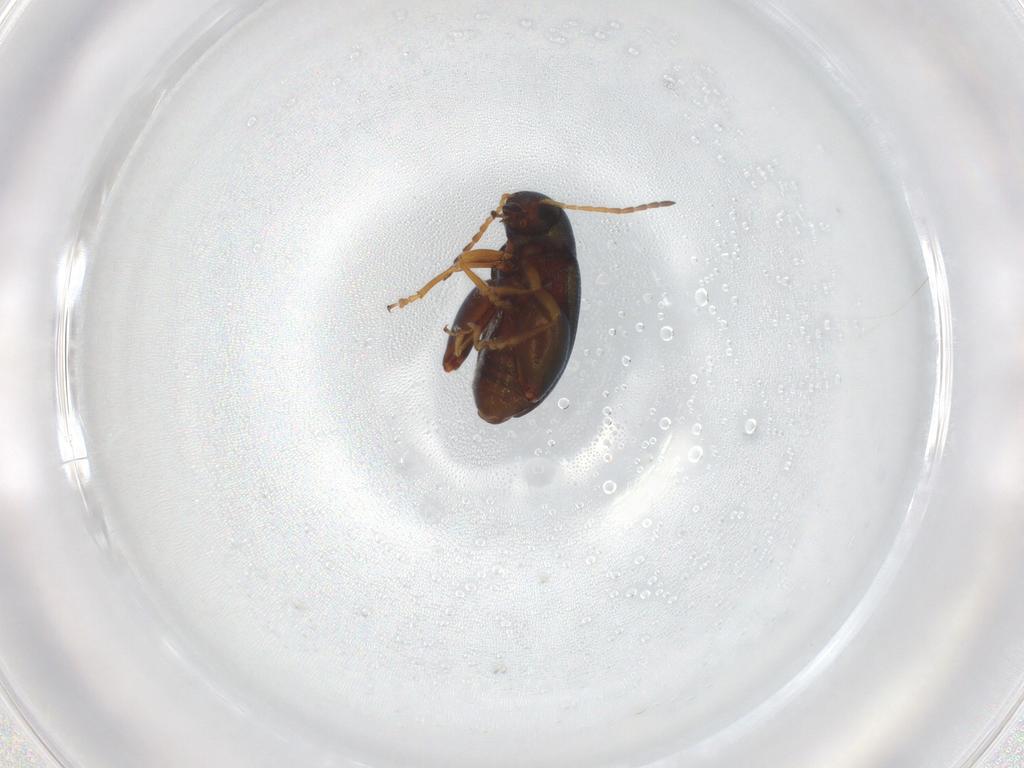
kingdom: Animalia
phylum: Arthropoda
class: Insecta
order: Coleoptera
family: Chrysomelidae
